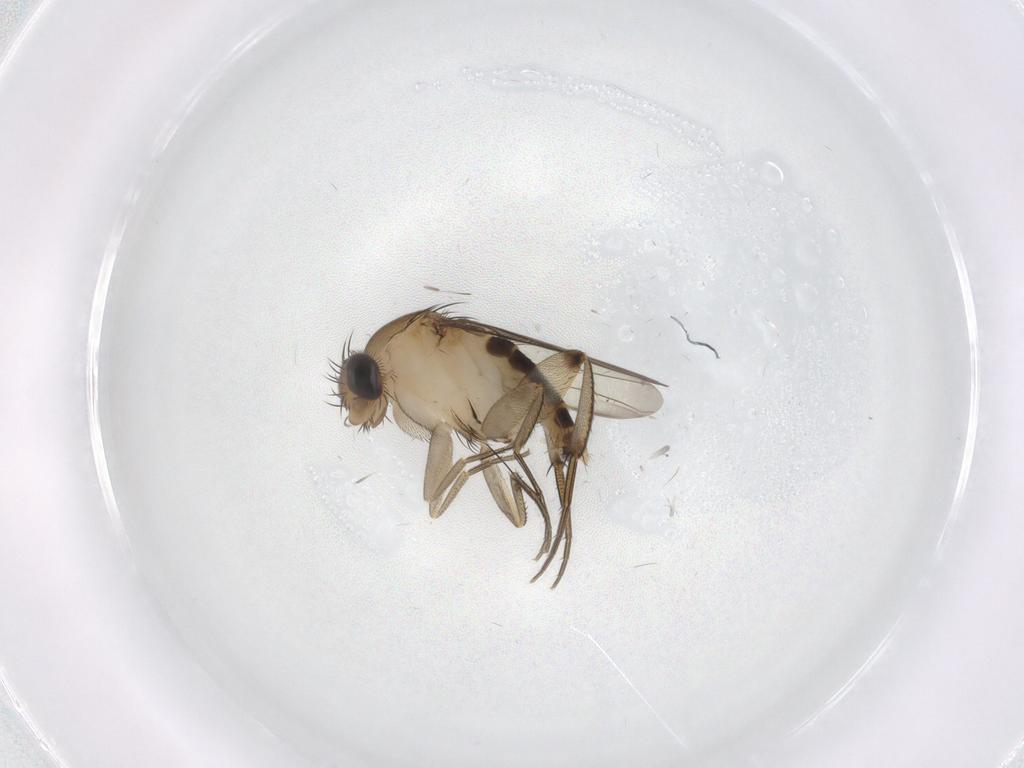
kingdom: Animalia
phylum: Arthropoda
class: Insecta
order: Diptera
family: Phoridae
